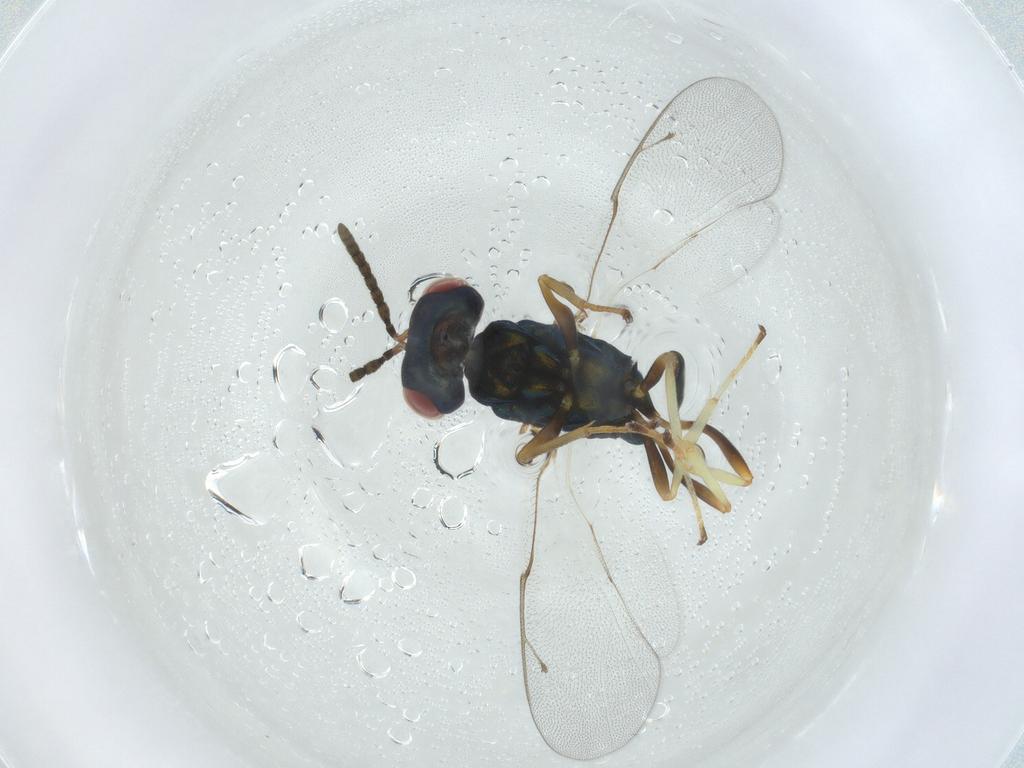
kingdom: Animalia
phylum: Arthropoda
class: Insecta
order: Hymenoptera
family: Pteromalidae
